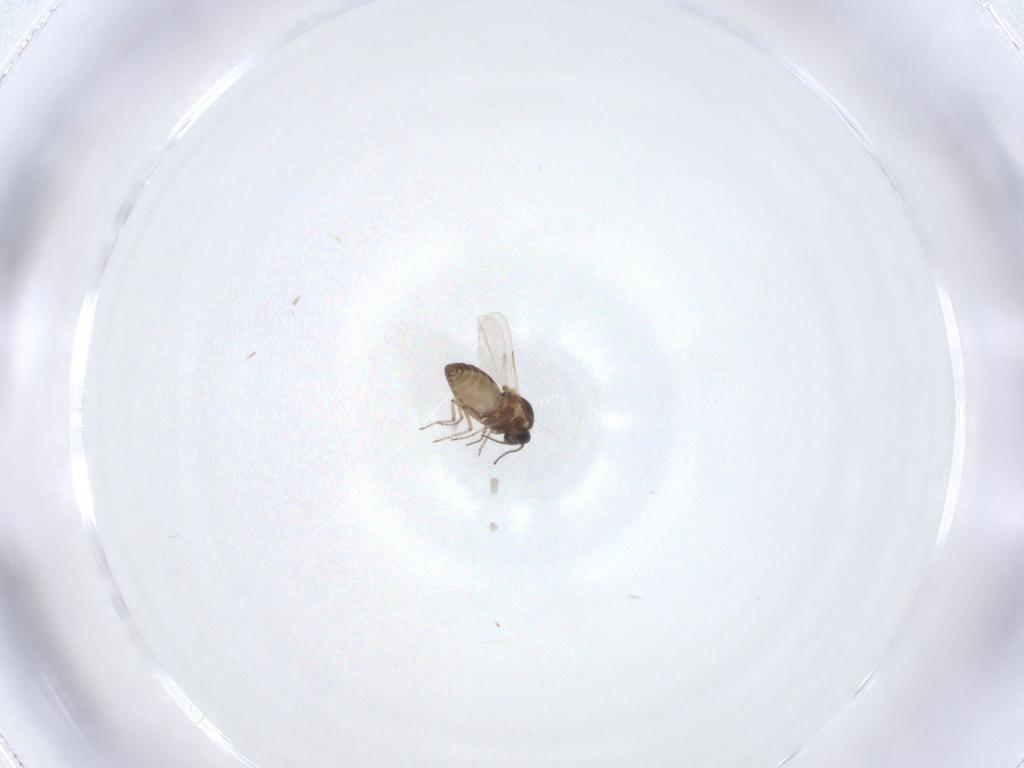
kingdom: Animalia
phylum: Arthropoda
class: Insecta
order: Diptera
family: Ceratopogonidae
